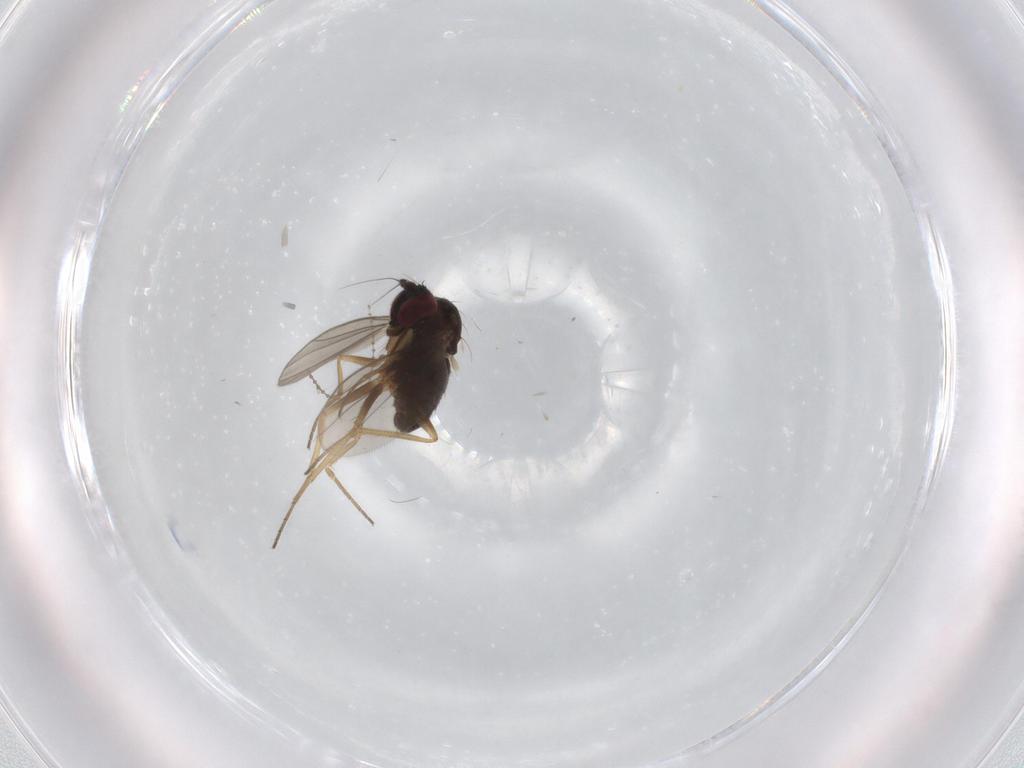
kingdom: Animalia
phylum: Arthropoda
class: Insecta
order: Diptera
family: Dolichopodidae
